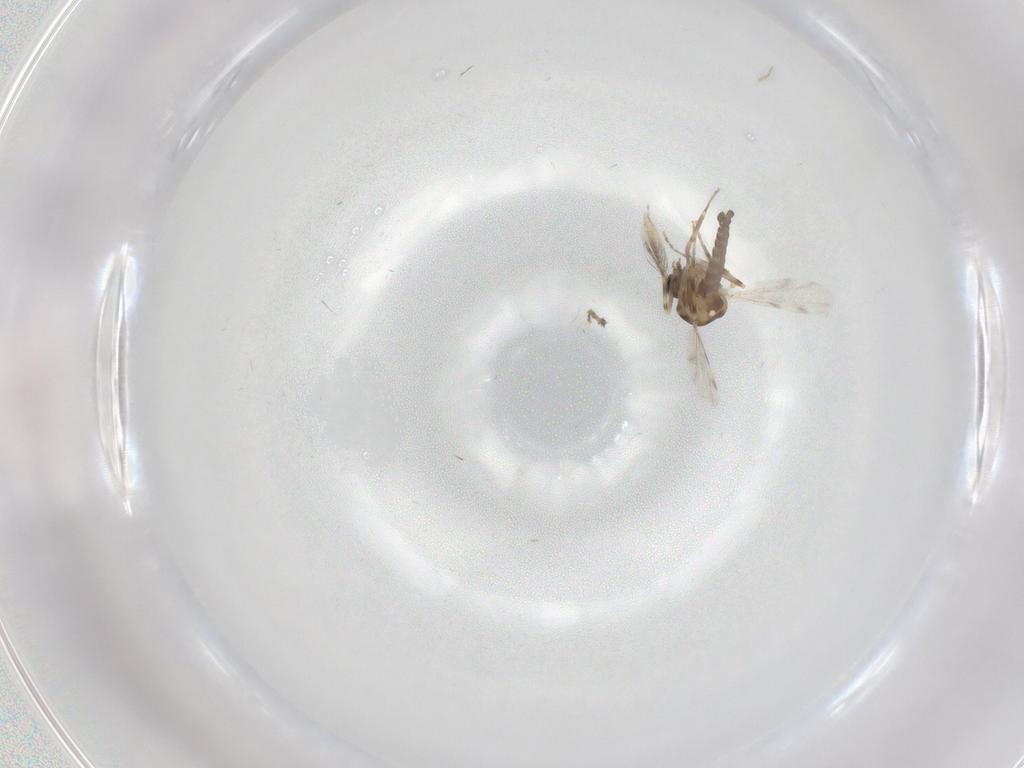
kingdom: Animalia
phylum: Arthropoda
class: Insecta
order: Diptera
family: Ceratopogonidae
